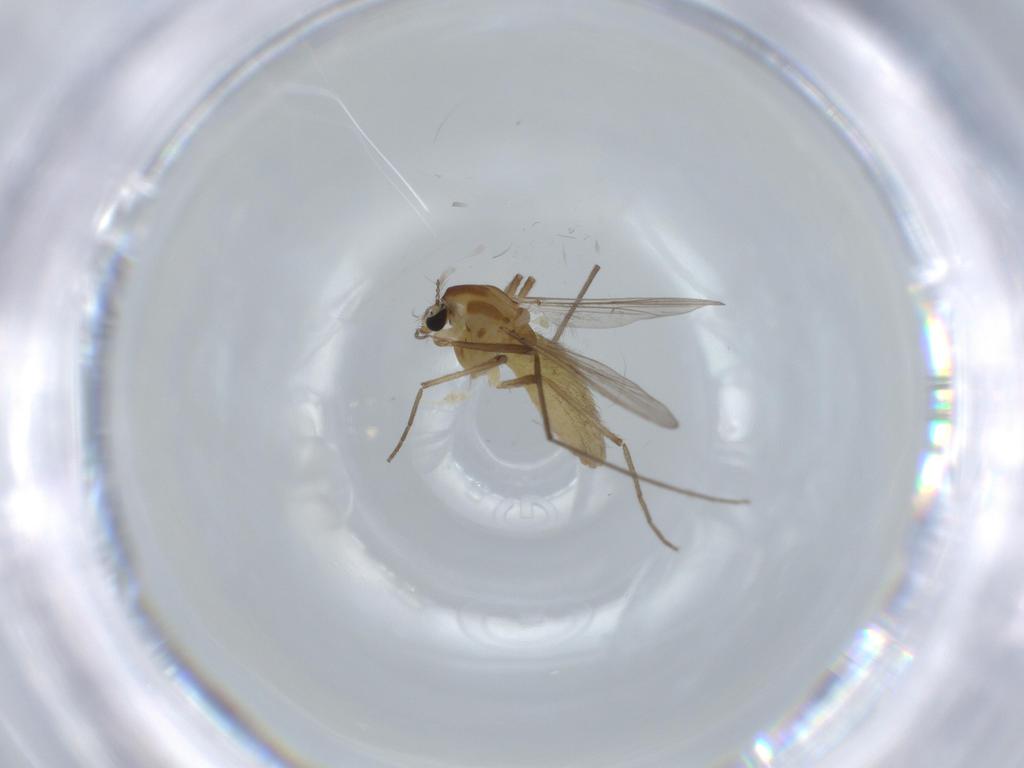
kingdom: Animalia
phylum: Arthropoda
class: Insecta
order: Diptera
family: Chironomidae
